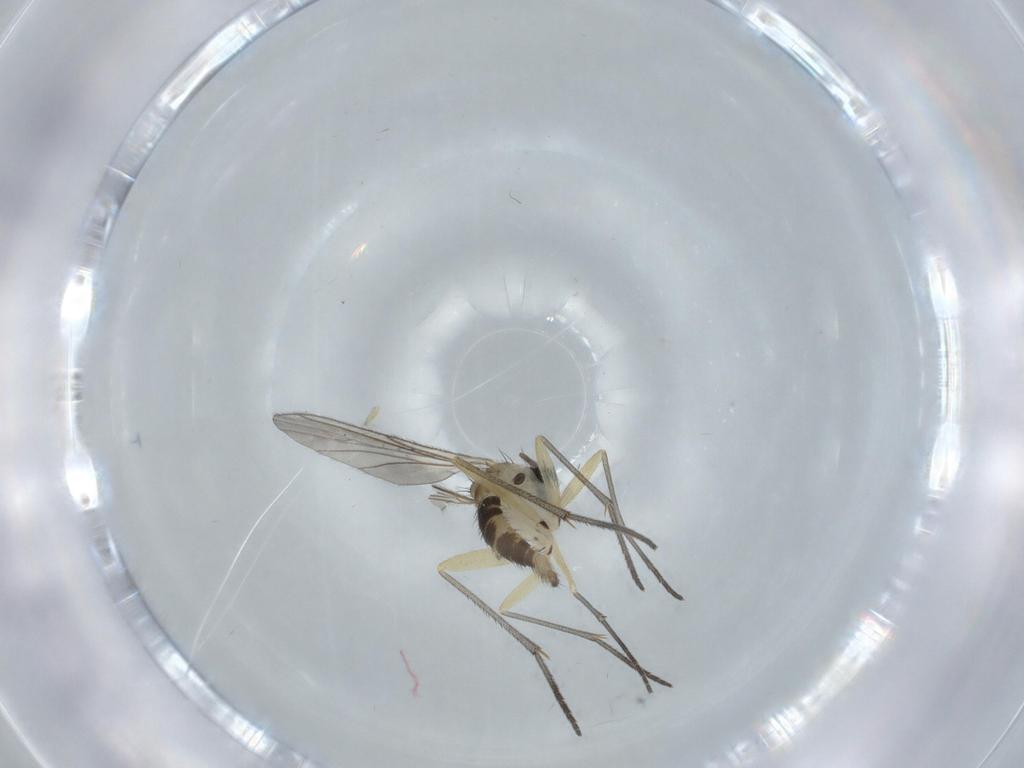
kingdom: Animalia
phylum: Arthropoda
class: Insecta
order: Diptera
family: Sciaridae
